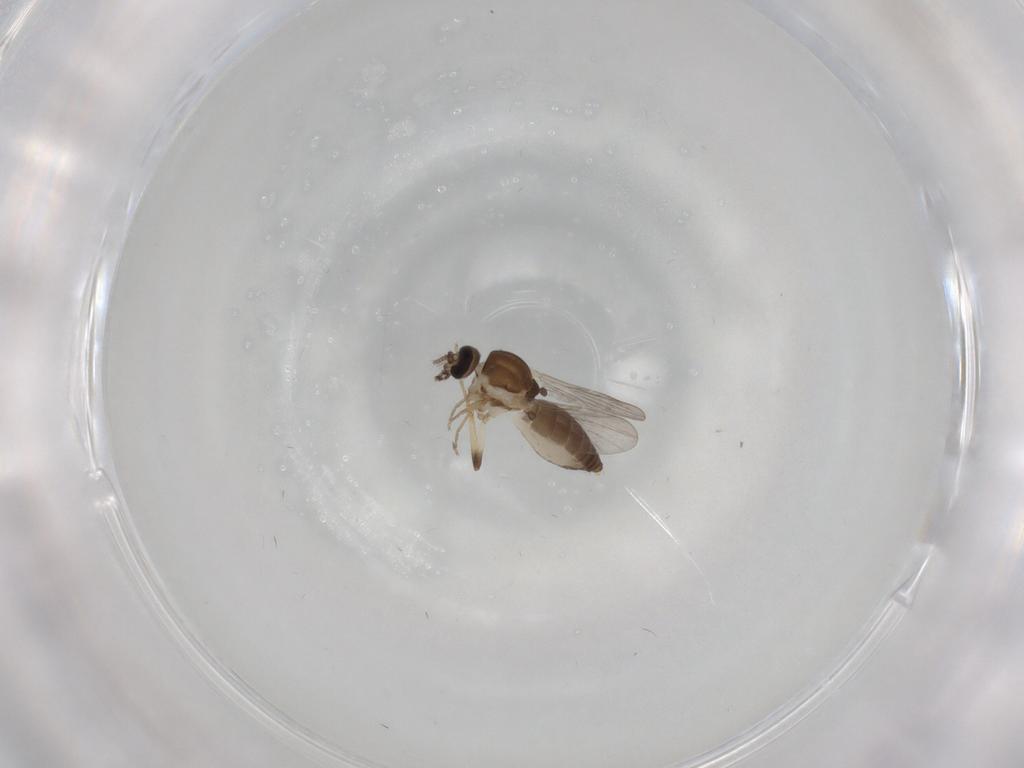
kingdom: Animalia
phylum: Arthropoda
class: Insecta
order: Diptera
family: Ceratopogonidae
